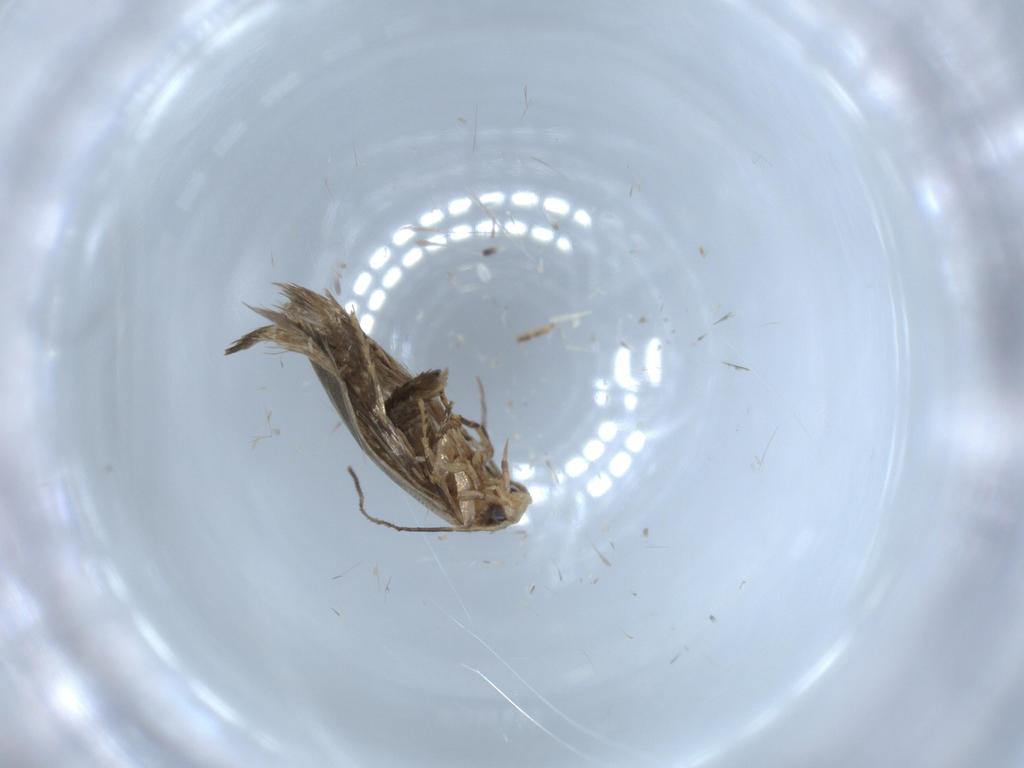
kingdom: Animalia
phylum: Arthropoda
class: Insecta
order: Lepidoptera
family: Tineidae
